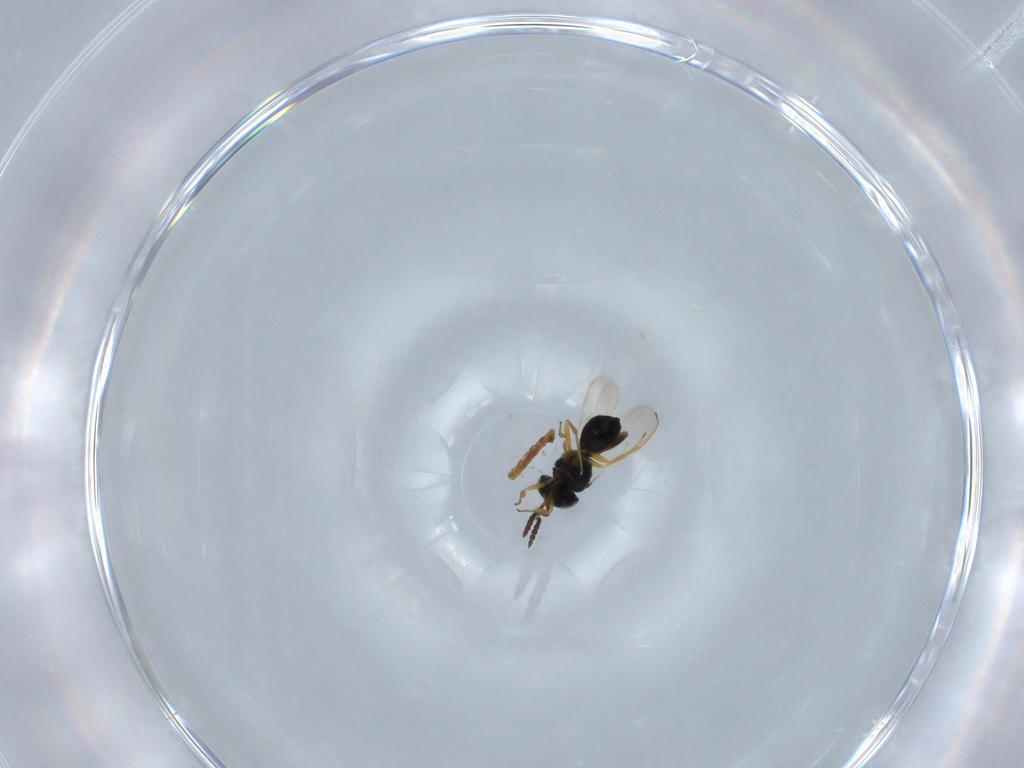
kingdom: Animalia
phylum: Arthropoda
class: Insecta
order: Hymenoptera
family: Scelionidae
